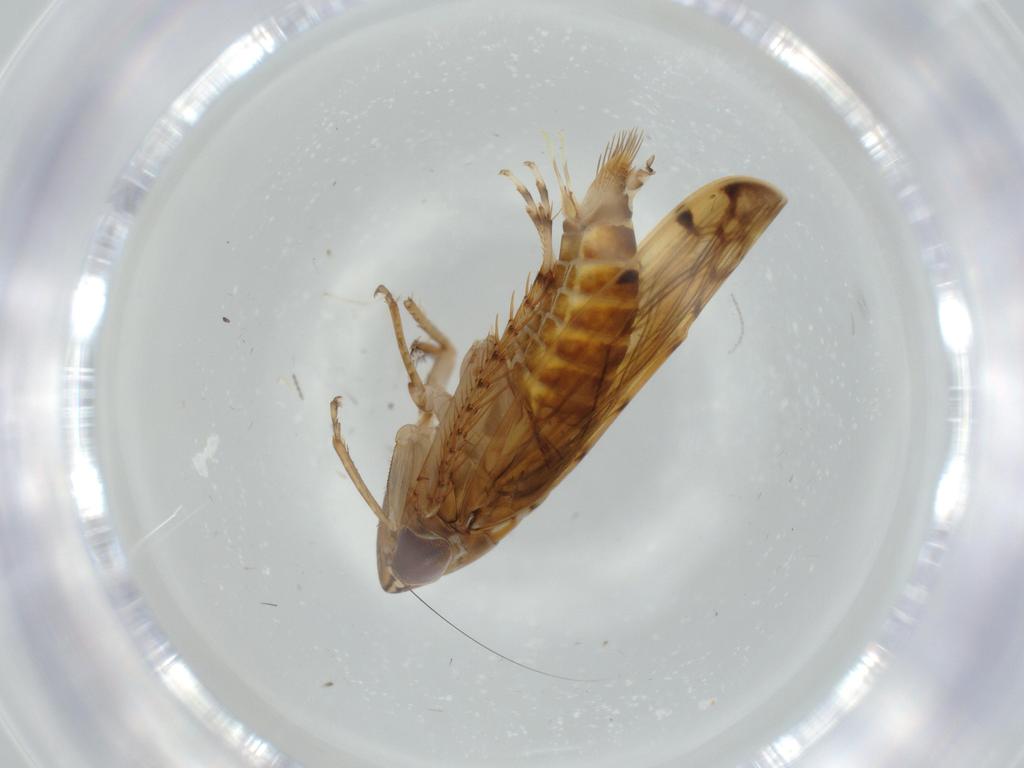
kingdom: Animalia
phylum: Arthropoda
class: Insecta
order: Hemiptera
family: Cicadellidae
